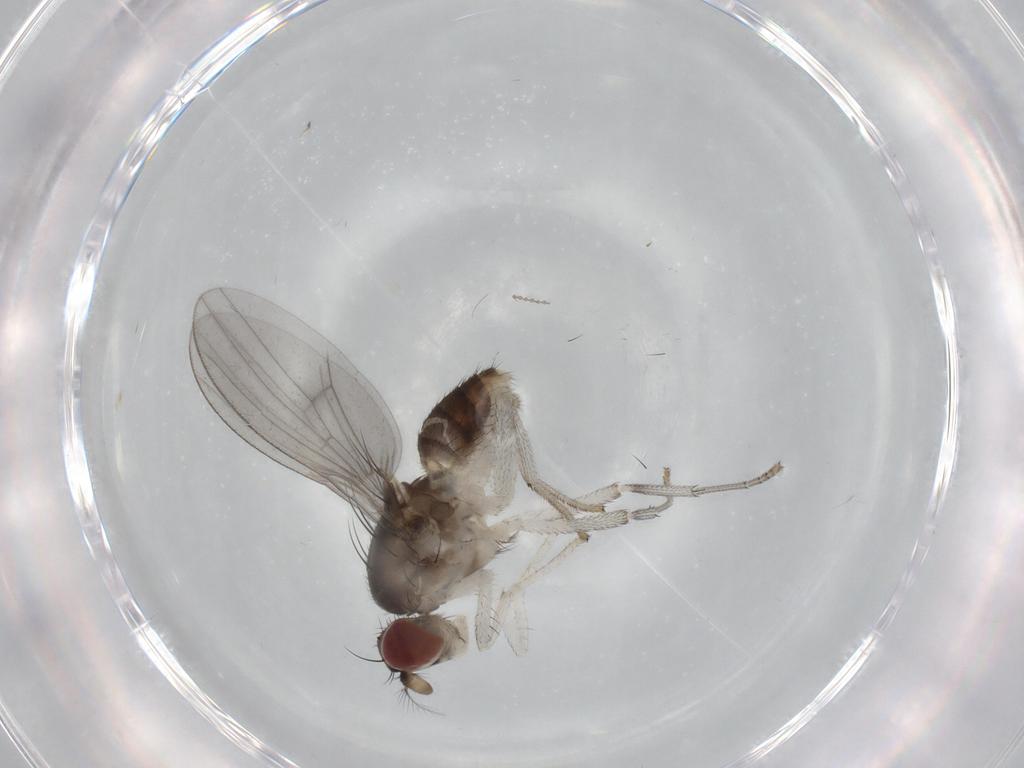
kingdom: Animalia
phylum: Arthropoda
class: Insecta
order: Diptera
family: Lauxaniidae
